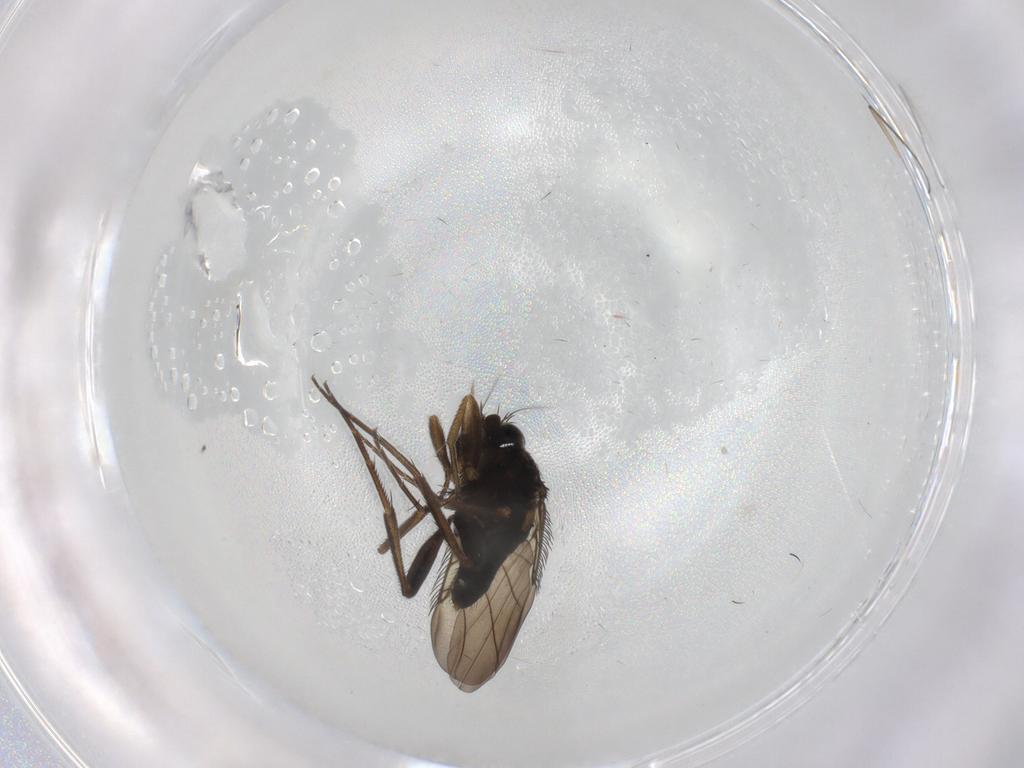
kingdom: Animalia
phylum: Arthropoda
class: Insecta
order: Diptera
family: Phoridae
